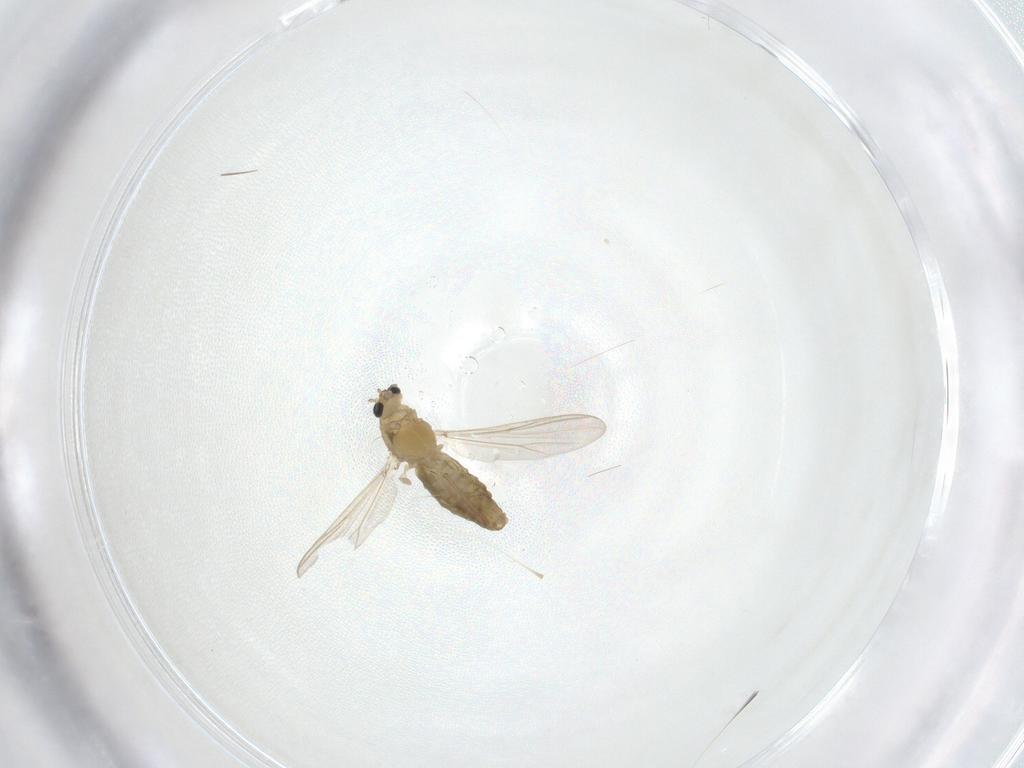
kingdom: Animalia
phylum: Arthropoda
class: Insecta
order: Diptera
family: Chironomidae
